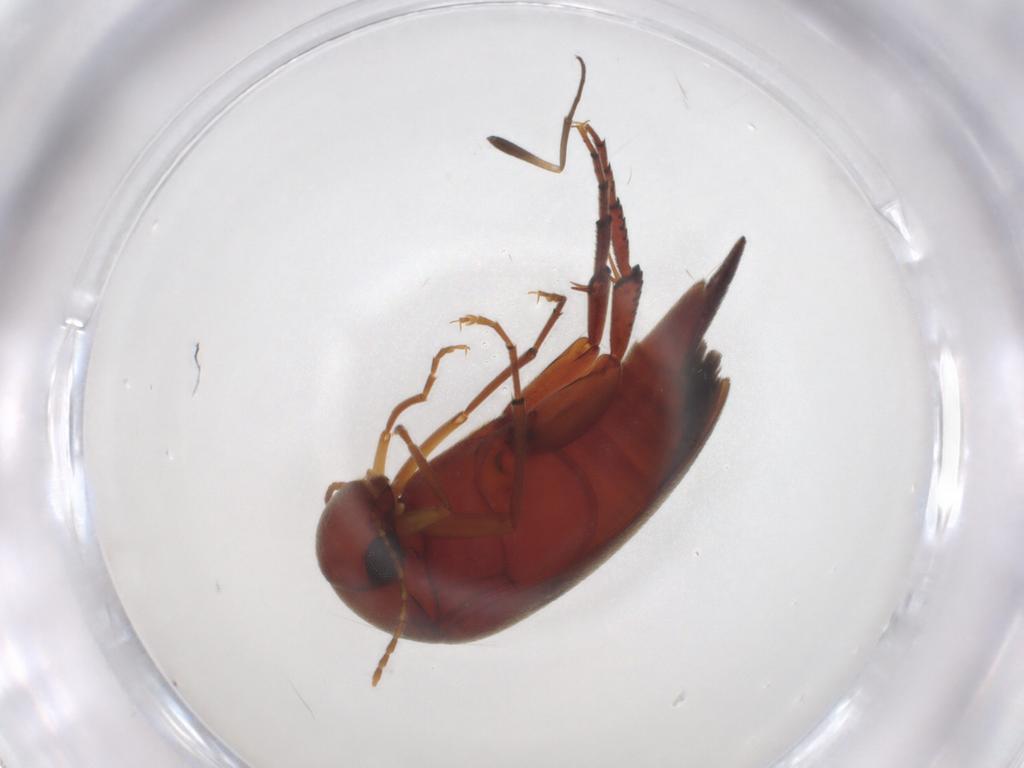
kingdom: Animalia
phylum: Arthropoda
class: Insecta
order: Coleoptera
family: Mordellidae
